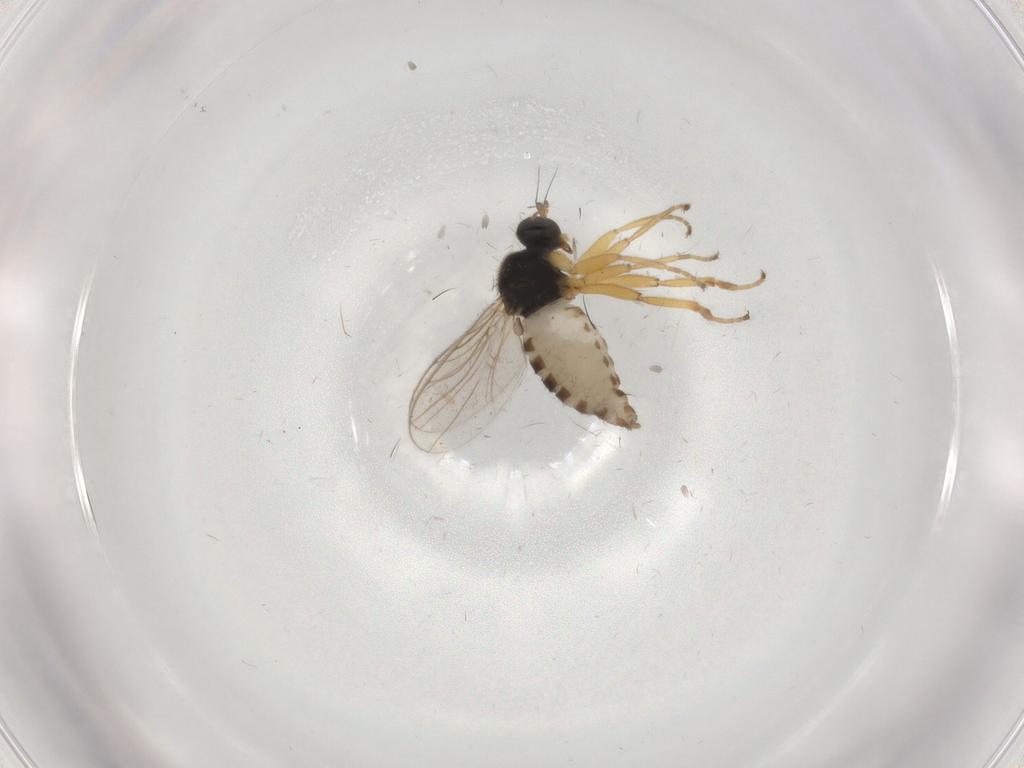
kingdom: Animalia
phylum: Arthropoda
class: Insecta
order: Diptera
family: Hybotidae
